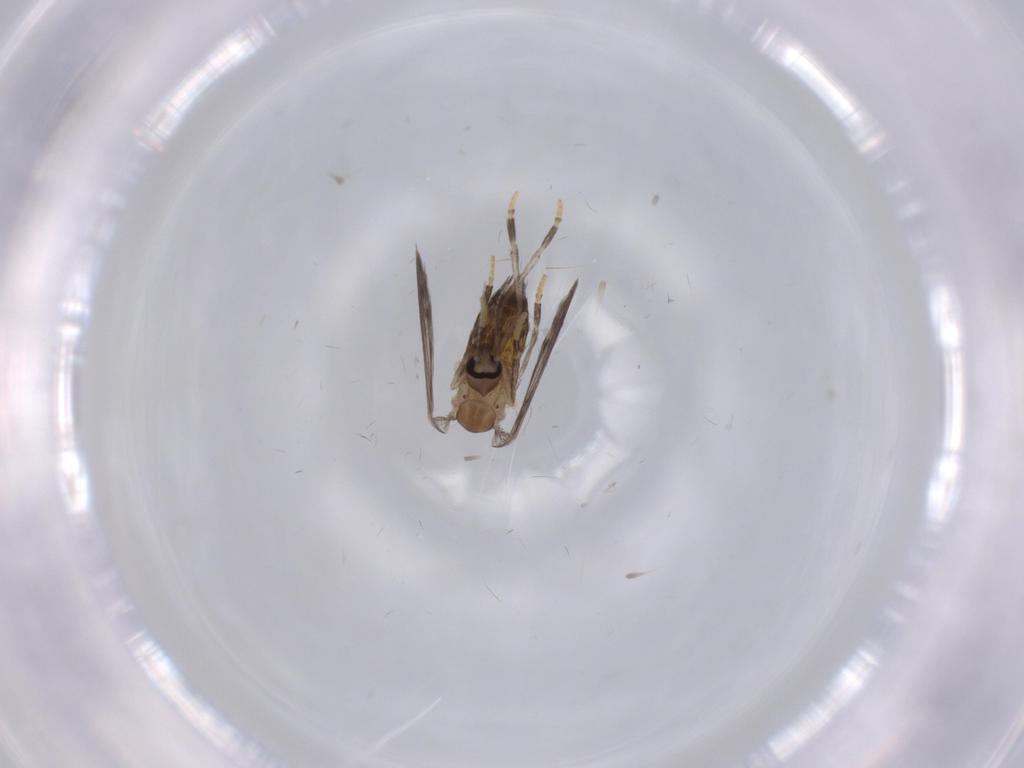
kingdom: Animalia
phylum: Arthropoda
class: Insecta
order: Diptera
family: Psychodidae
